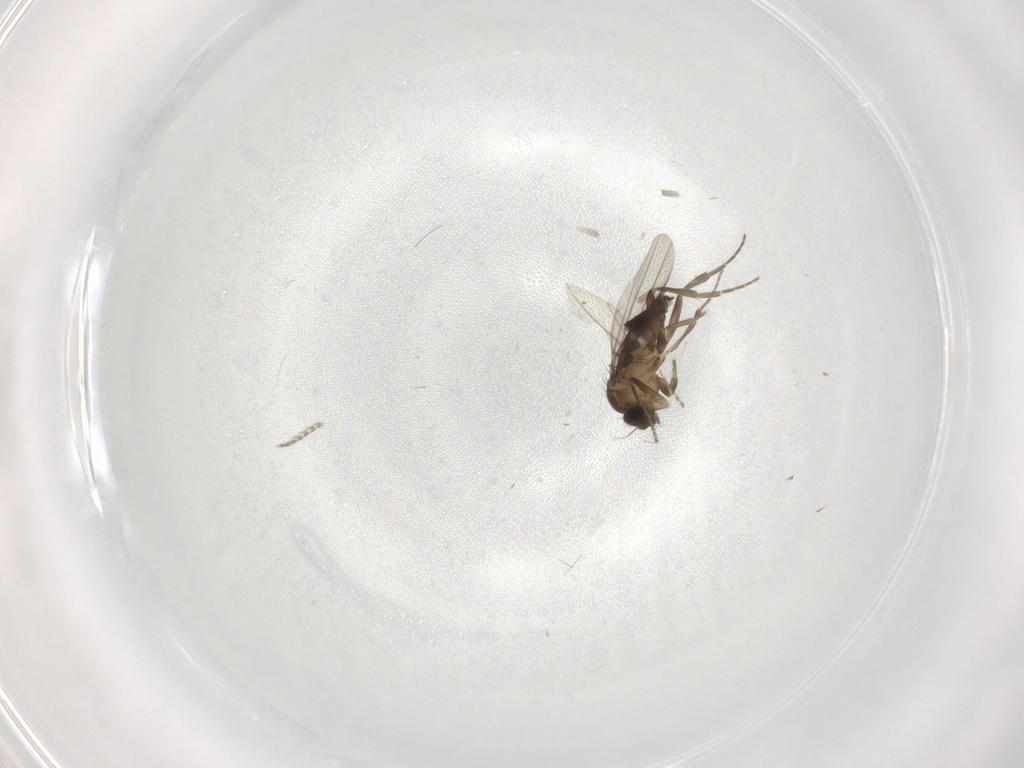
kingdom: Animalia
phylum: Arthropoda
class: Insecta
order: Diptera
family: Phoridae
